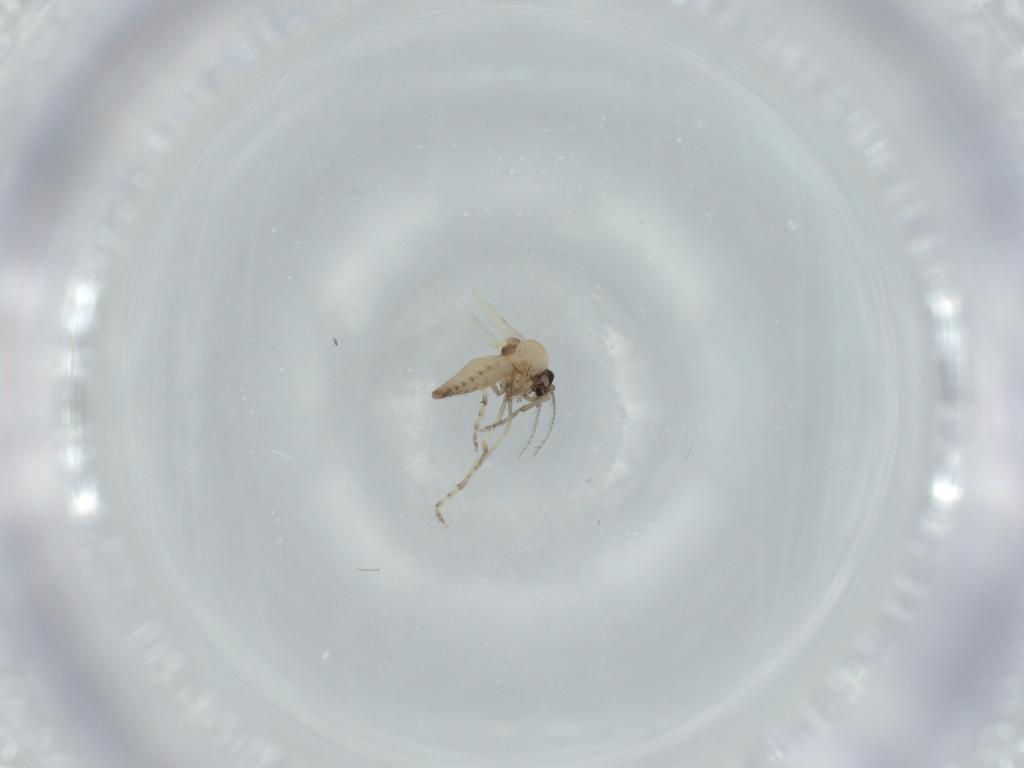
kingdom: Animalia
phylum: Arthropoda
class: Insecta
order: Diptera
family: Ceratopogonidae
